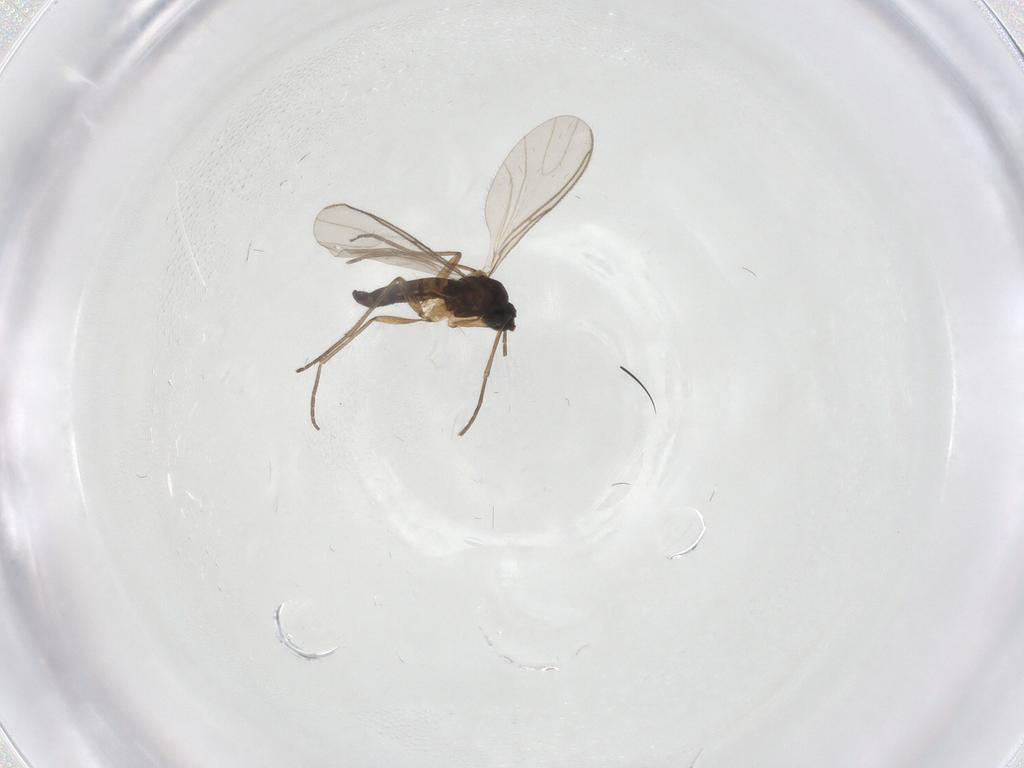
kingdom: Animalia
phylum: Arthropoda
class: Insecta
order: Diptera
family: Sciaridae
